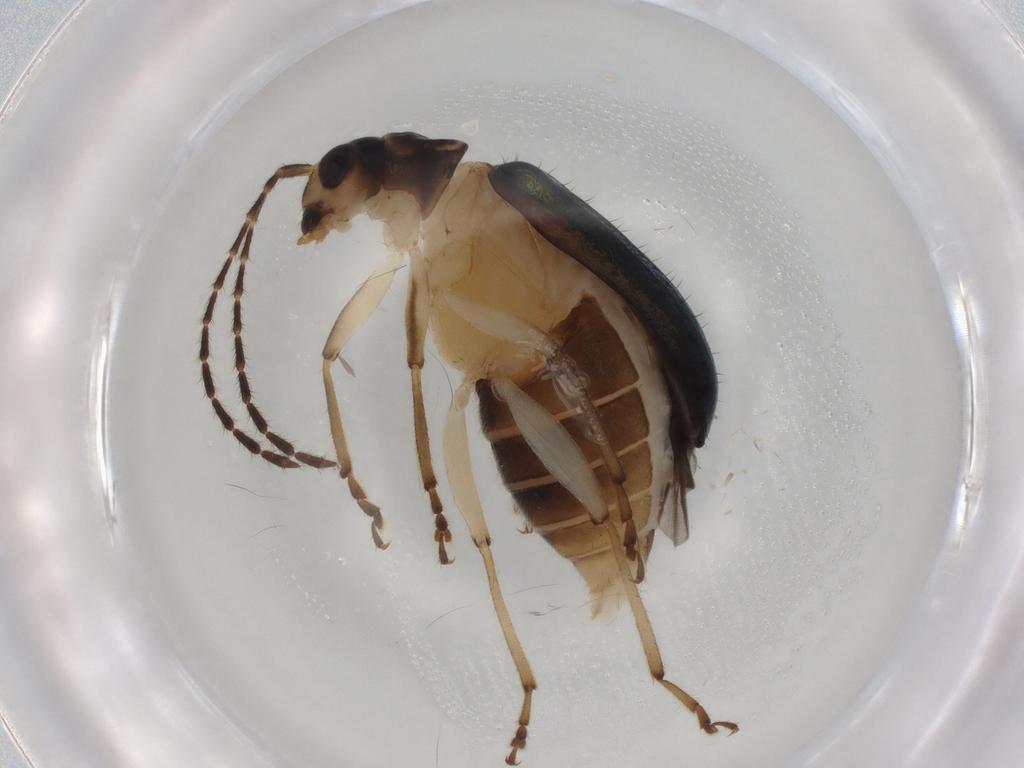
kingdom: Animalia
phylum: Arthropoda
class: Insecta
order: Coleoptera
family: Chrysomelidae
